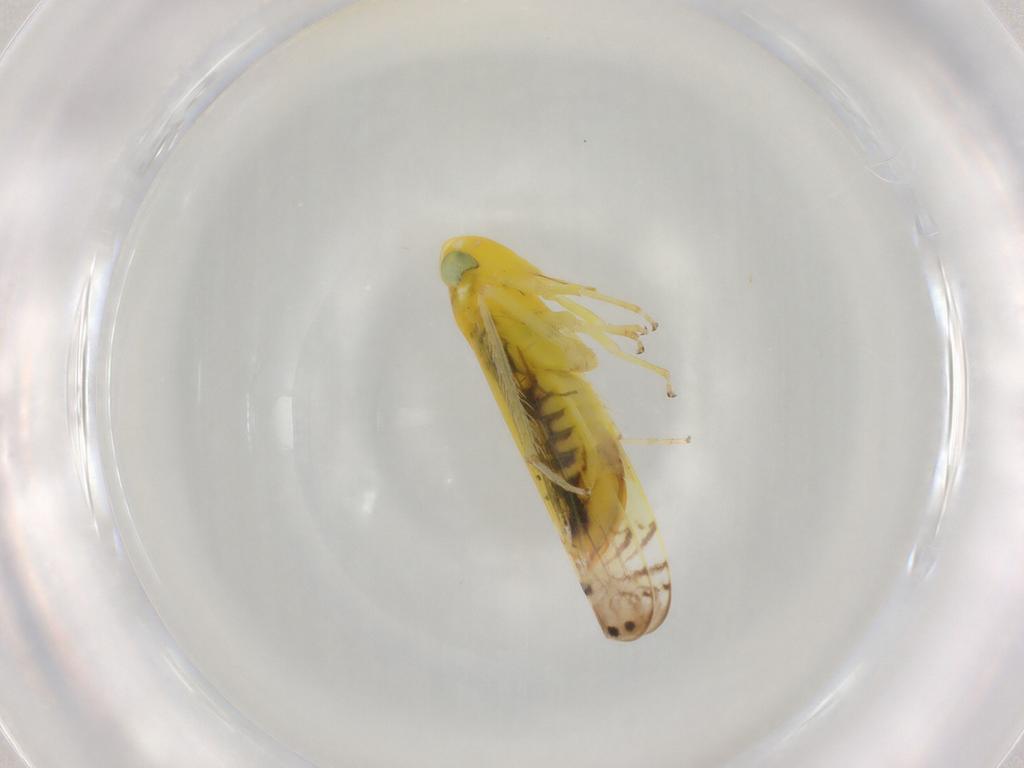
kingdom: Animalia
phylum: Arthropoda
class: Insecta
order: Hemiptera
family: Cicadellidae
